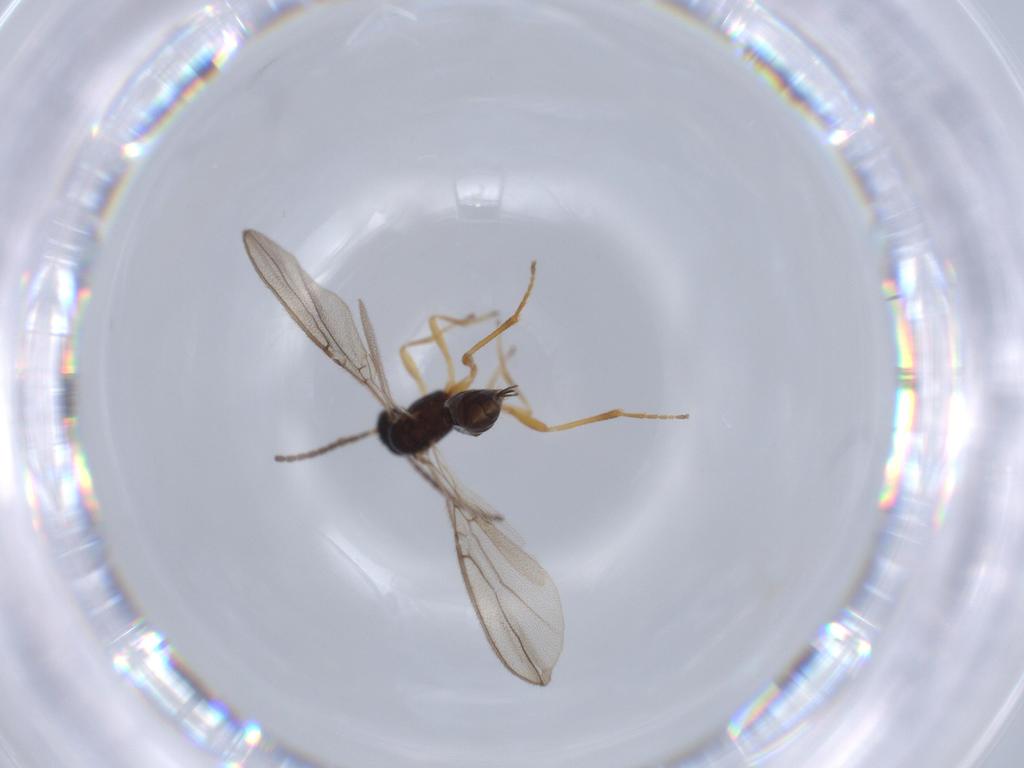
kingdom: Animalia
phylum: Arthropoda
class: Insecta
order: Hymenoptera
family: Braconidae
